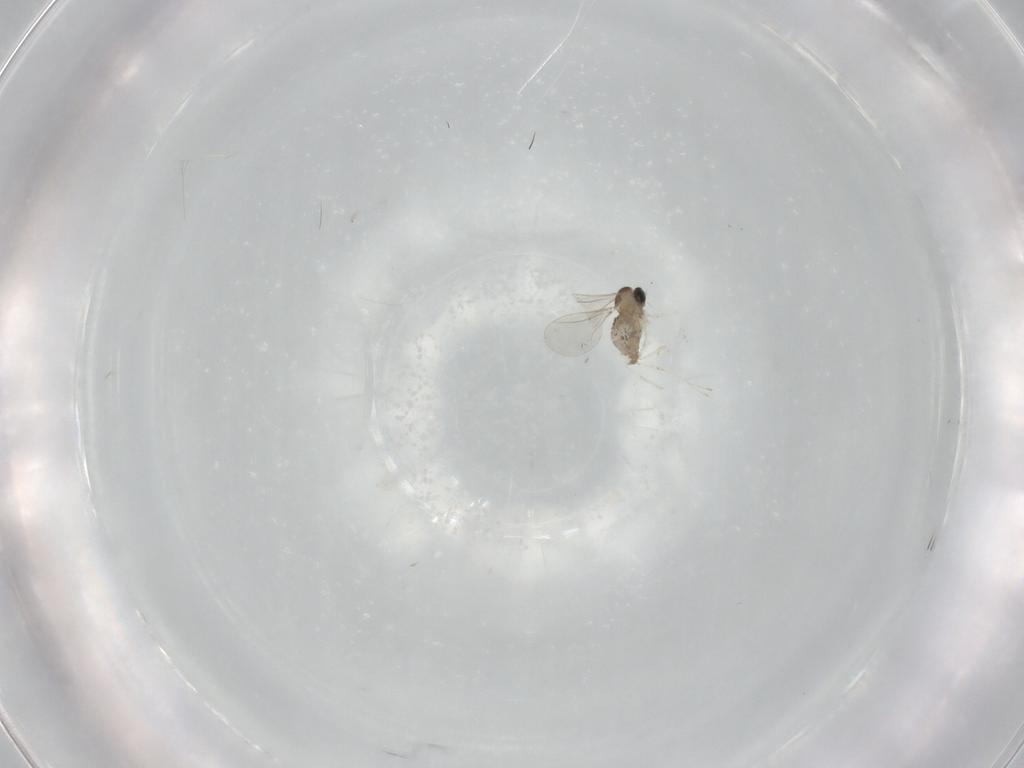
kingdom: Animalia
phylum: Arthropoda
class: Insecta
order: Diptera
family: Cecidomyiidae
